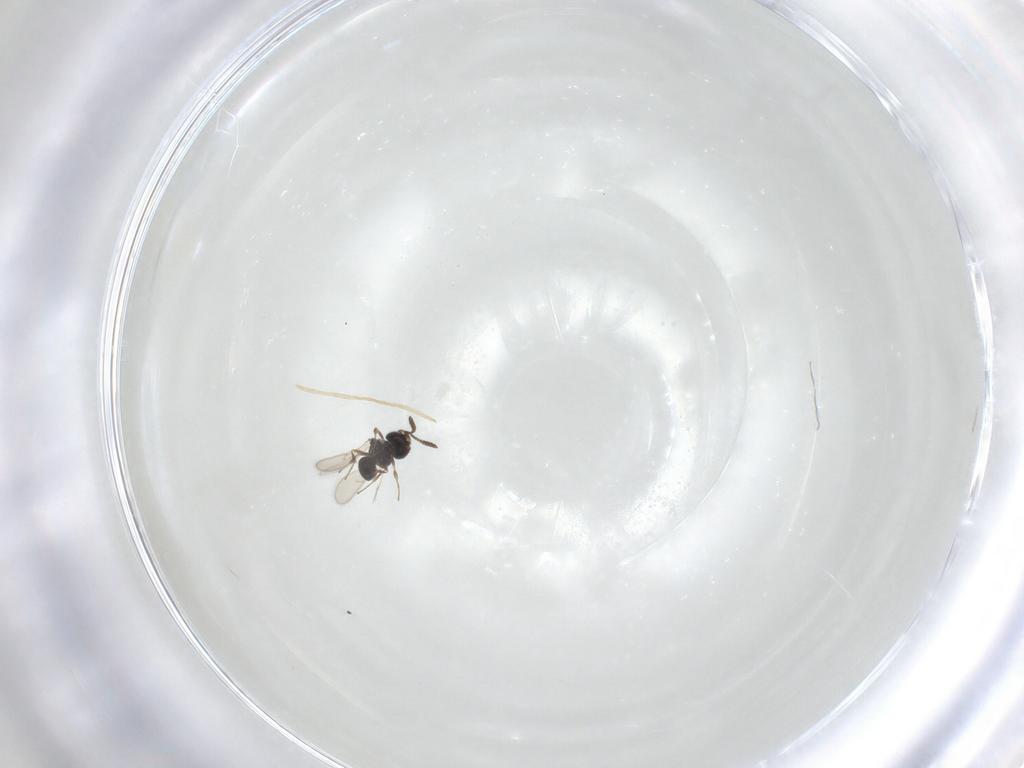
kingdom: Animalia
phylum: Arthropoda
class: Insecta
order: Hymenoptera
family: Scelionidae
